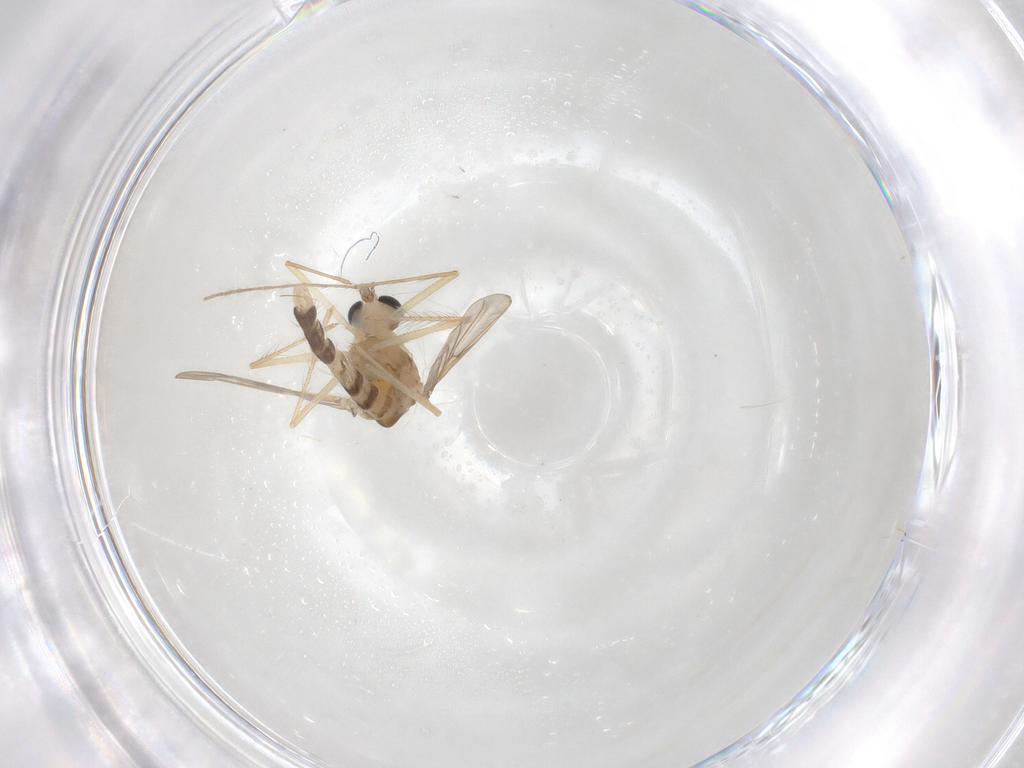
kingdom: Animalia
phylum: Arthropoda
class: Insecta
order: Diptera
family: Chironomidae
